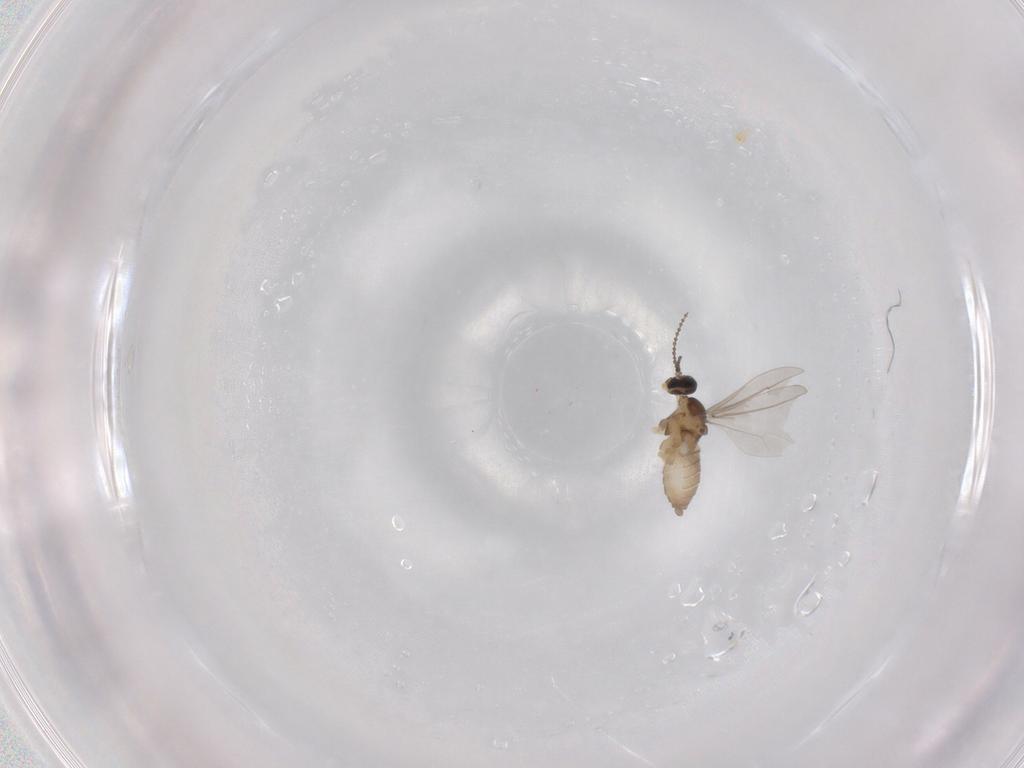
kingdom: Animalia
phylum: Arthropoda
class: Insecta
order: Diptera
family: Cecidomyiidae
